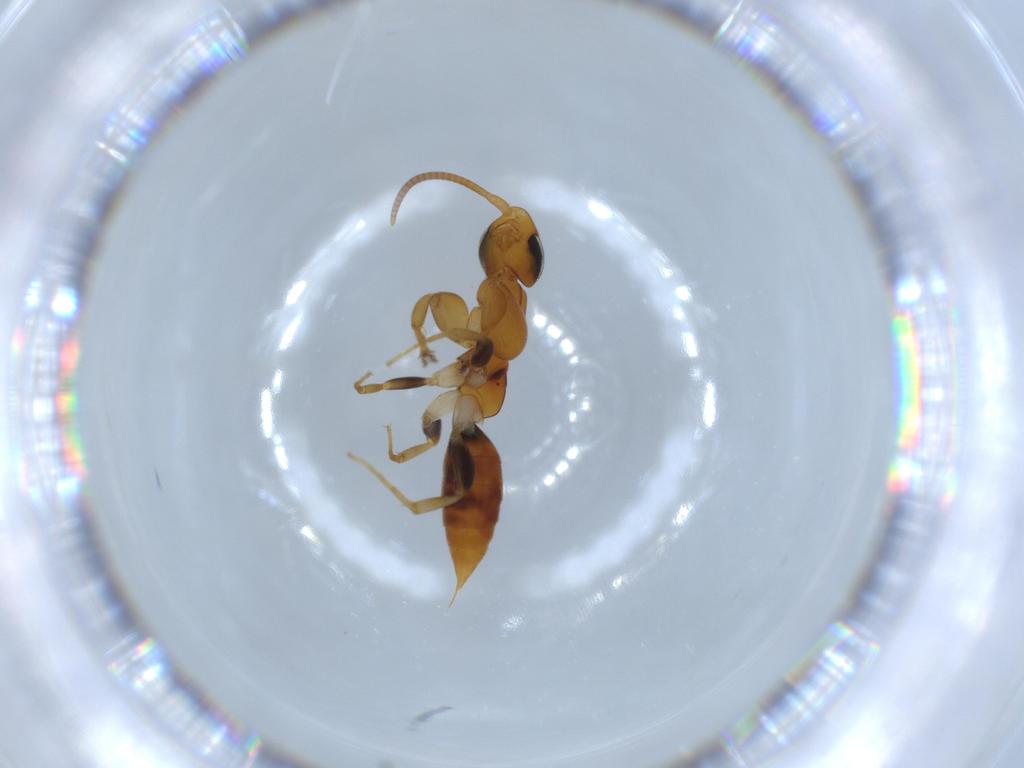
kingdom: Animalia
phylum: Arthropoda
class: Insecta
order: Hymenoptera
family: Sclerogibbidae
